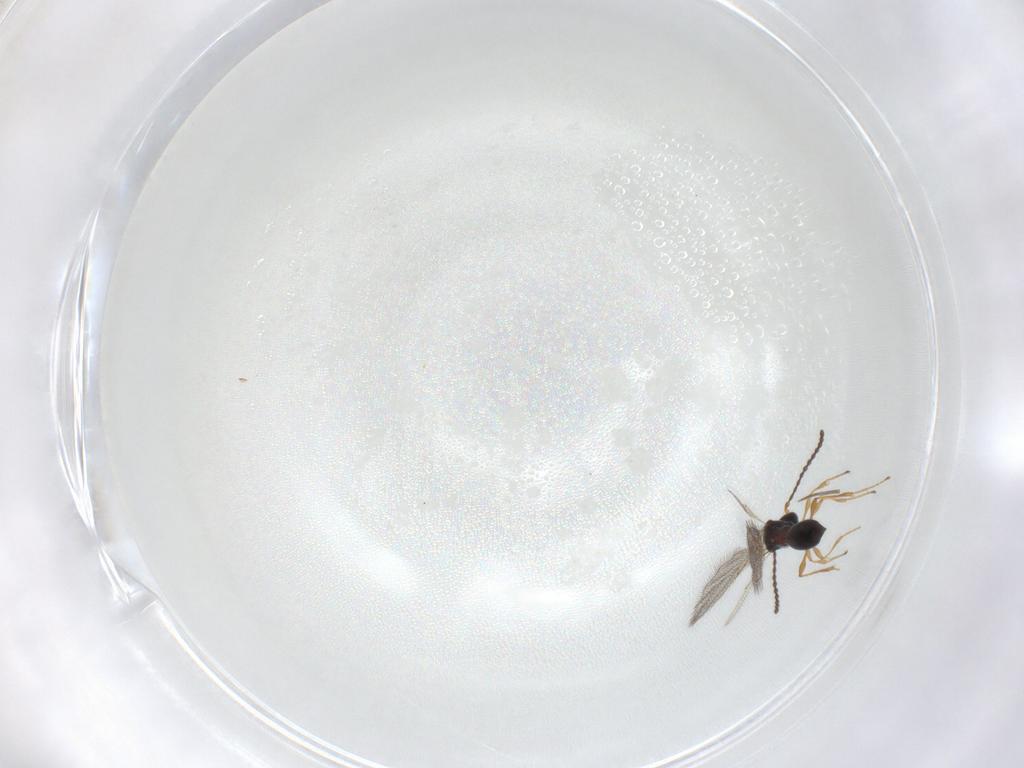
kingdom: Animalia
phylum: Arthropoda
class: Insecta
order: Hymenoptera
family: Diapriidae
